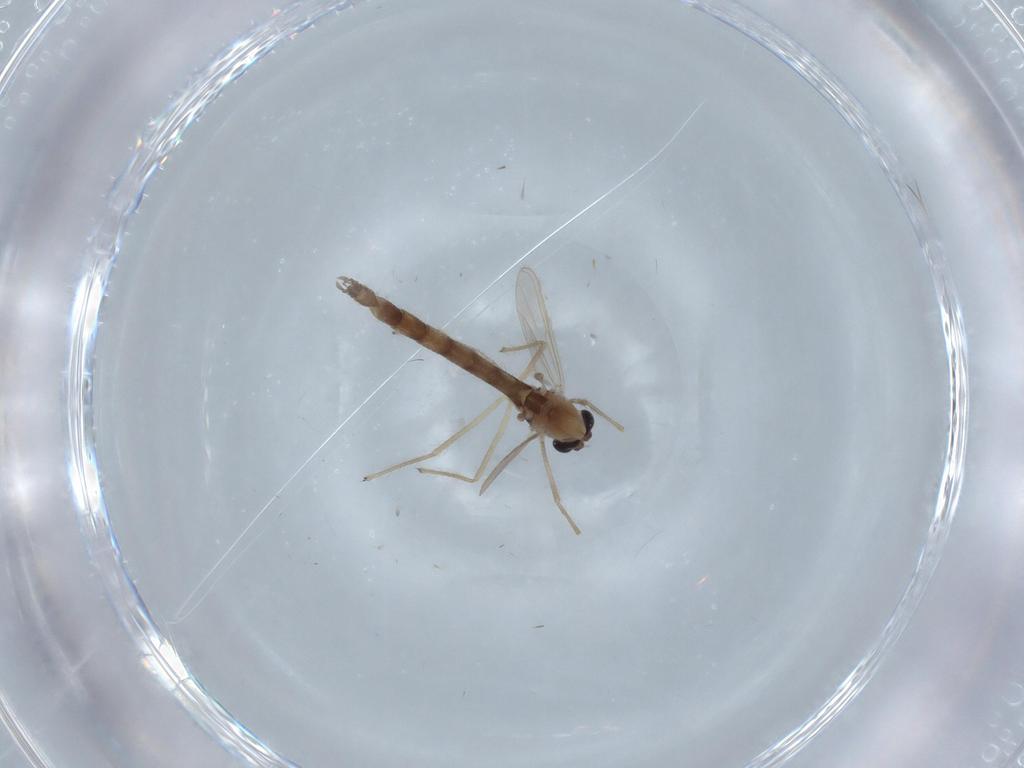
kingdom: Animalia
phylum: Arthropoda
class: Insecta
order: Diptera
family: Chironomidae
